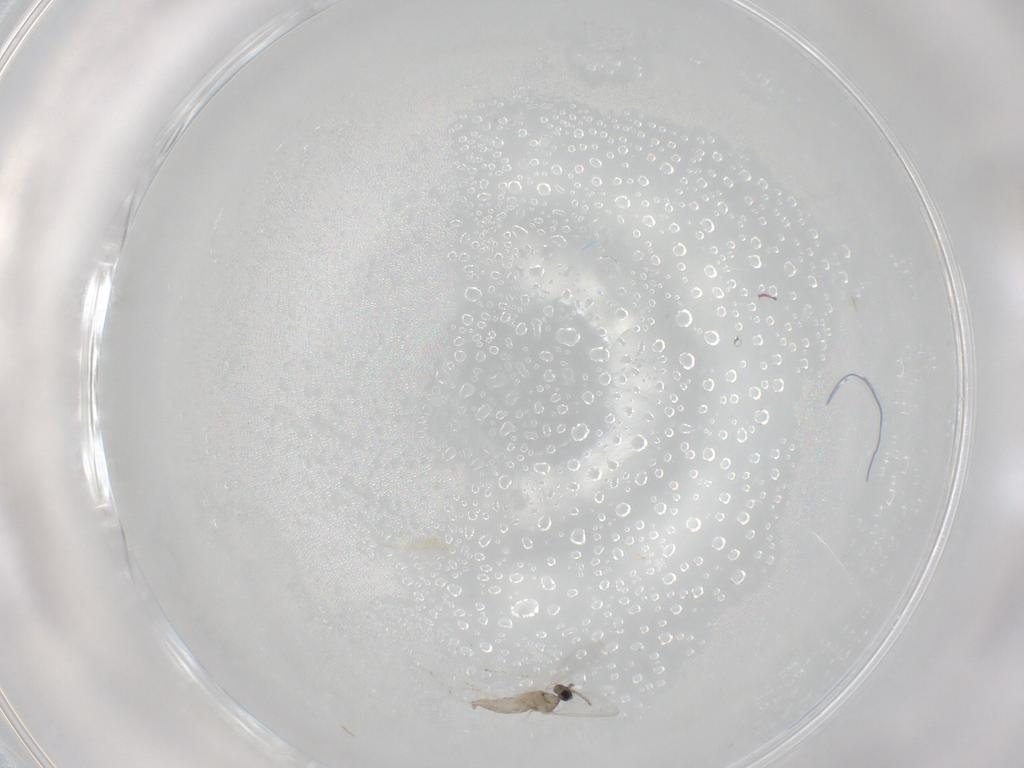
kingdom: Animalia
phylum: Arthropoda
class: Insecta
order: Diptera
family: Cecidomyiidae
